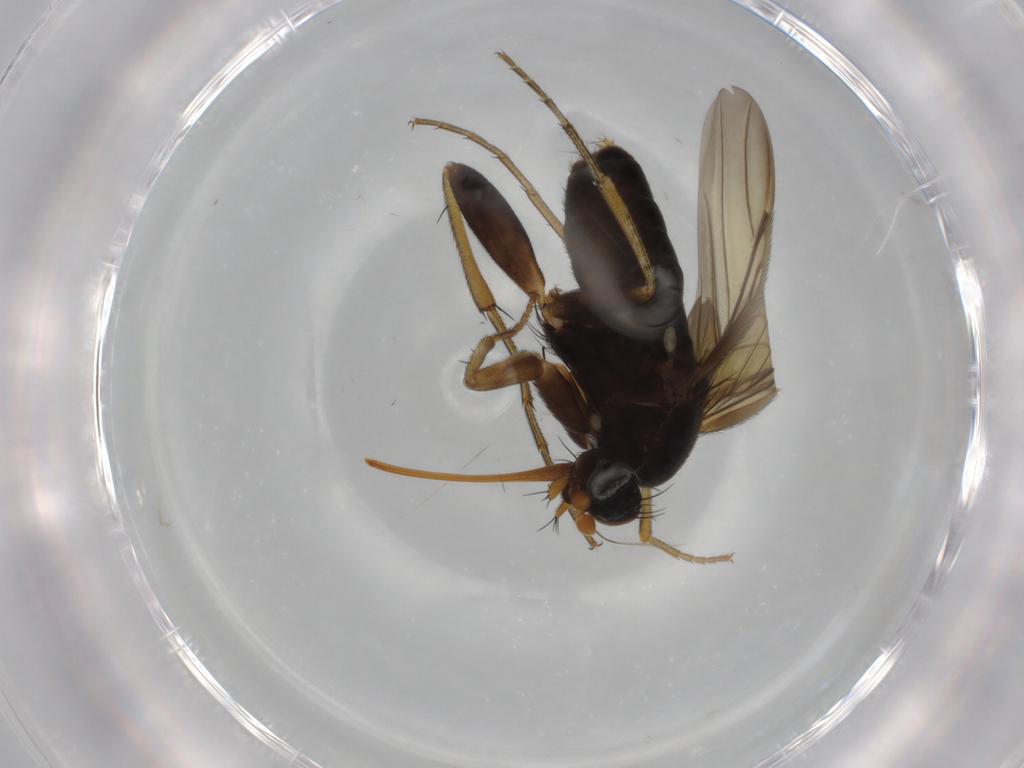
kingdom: Animalia
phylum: Arthropoda
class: Insecta
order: Diptera
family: Phoridae
